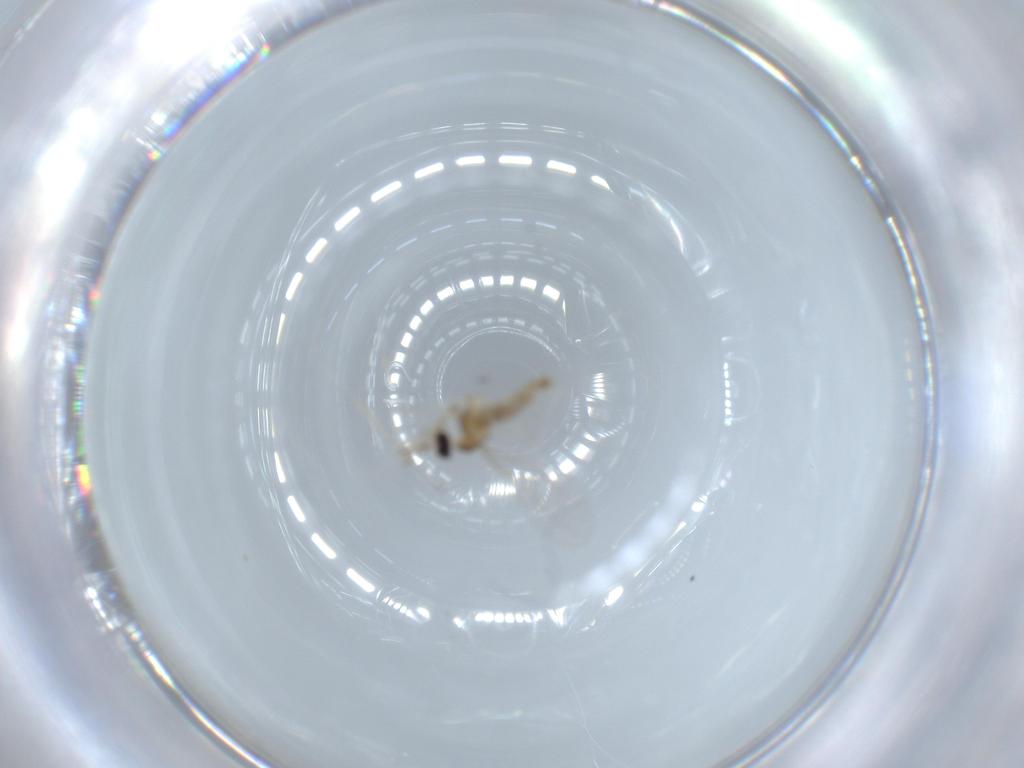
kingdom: Animalia
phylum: Arthropoda
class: Insecta
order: Diptera
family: Cecidomyiidae
